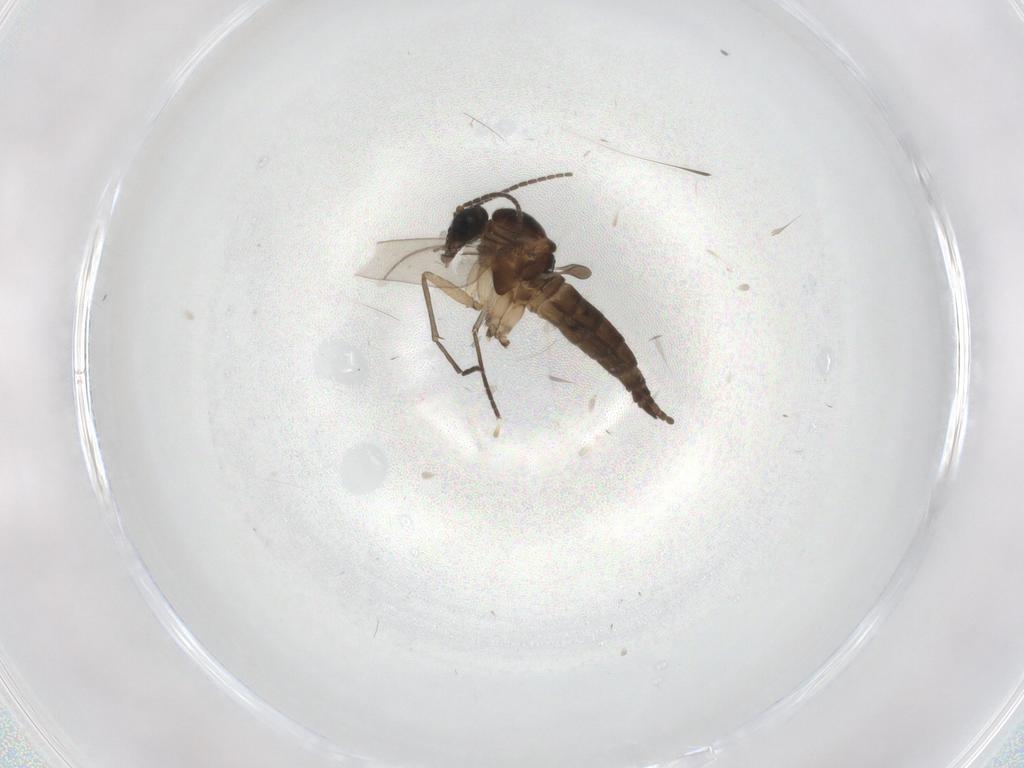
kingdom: Animalia
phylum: Arthropoda
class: Insecta
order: Diptera
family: Sciaridae
